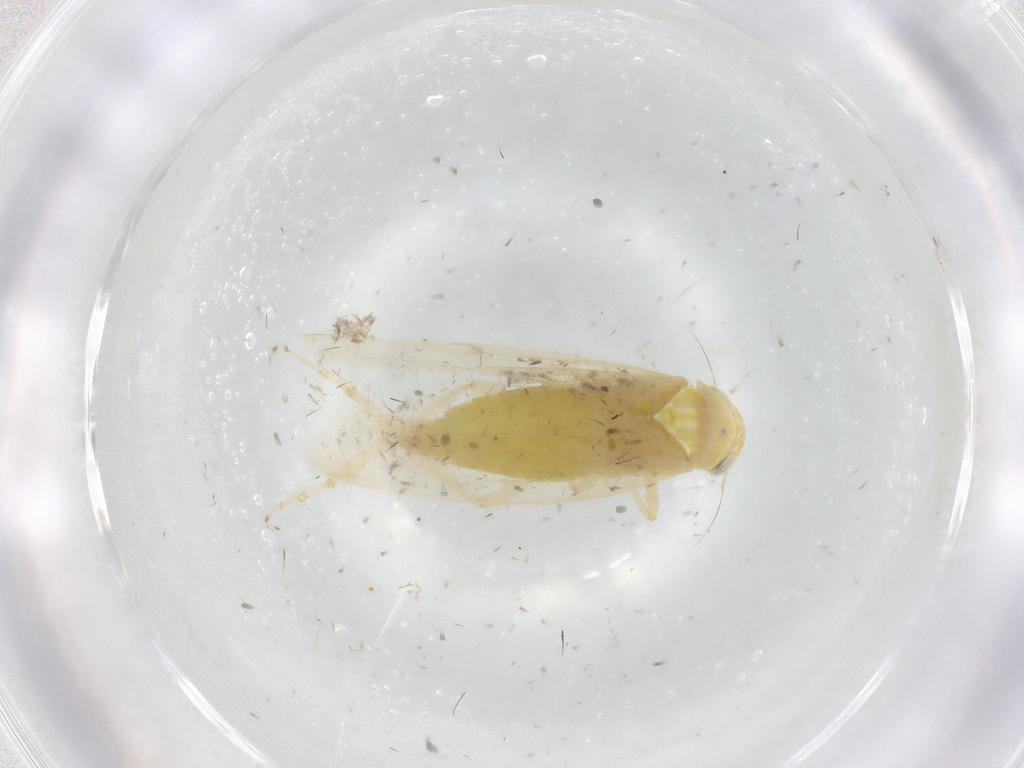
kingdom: Animalia
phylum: Arthropoda
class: Insecta
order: Hemiptera
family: Cicadellidae
